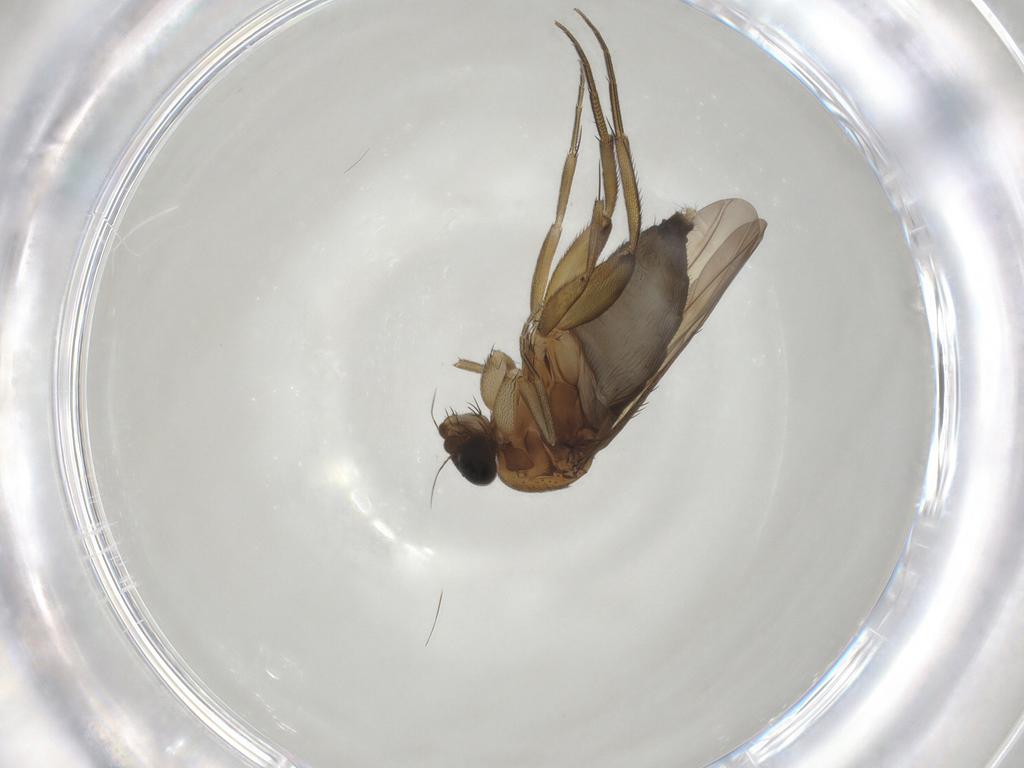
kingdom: Animalia
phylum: Arthropoda
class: Insecta
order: Diptera
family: Phoridae
